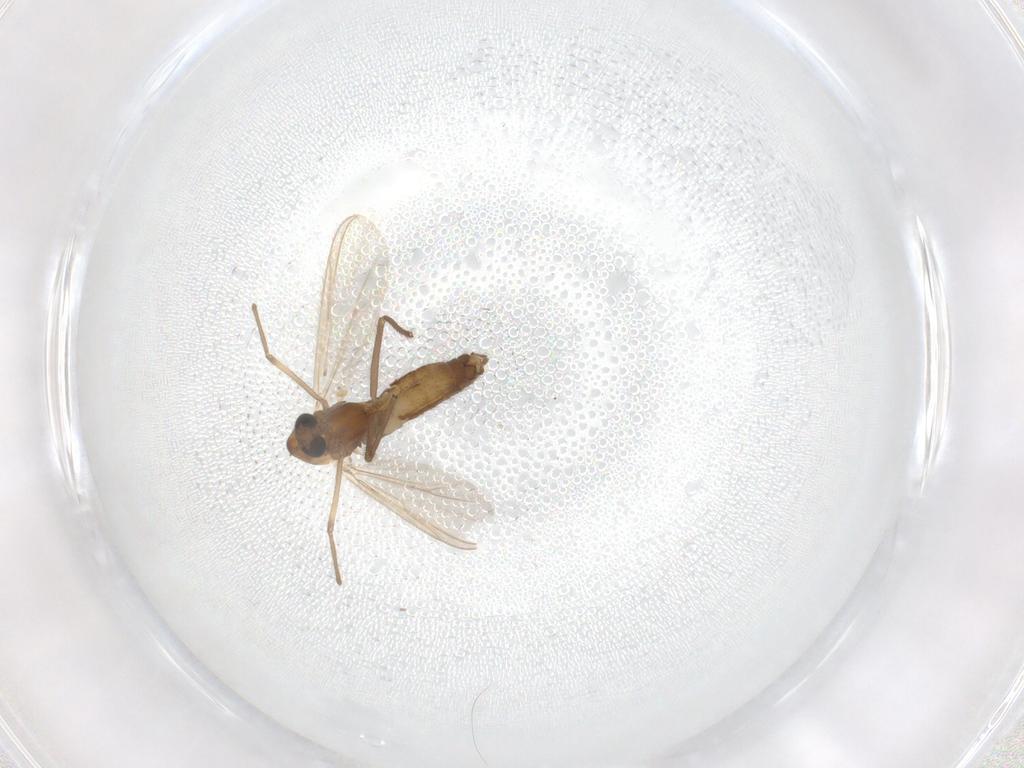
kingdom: Animalia
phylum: Arthropoda
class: Insecta
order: Diptera
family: Chironomidae
